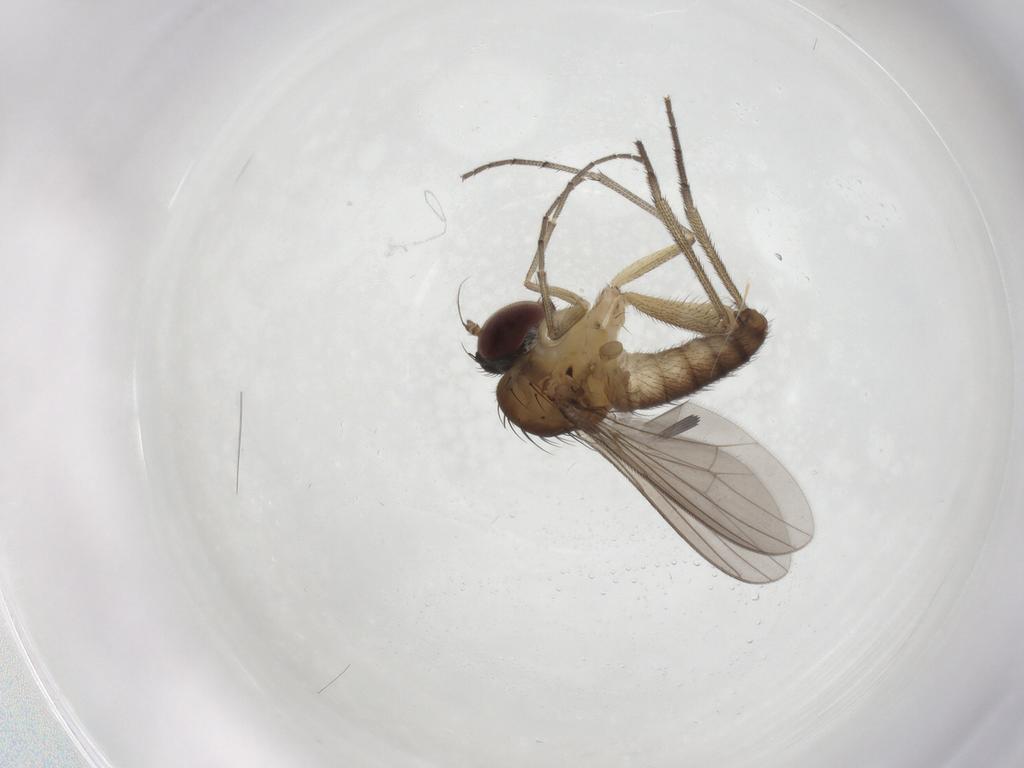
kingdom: Animalia
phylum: Arthropoda
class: Insecta
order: Diptera
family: Dolichopodidae
